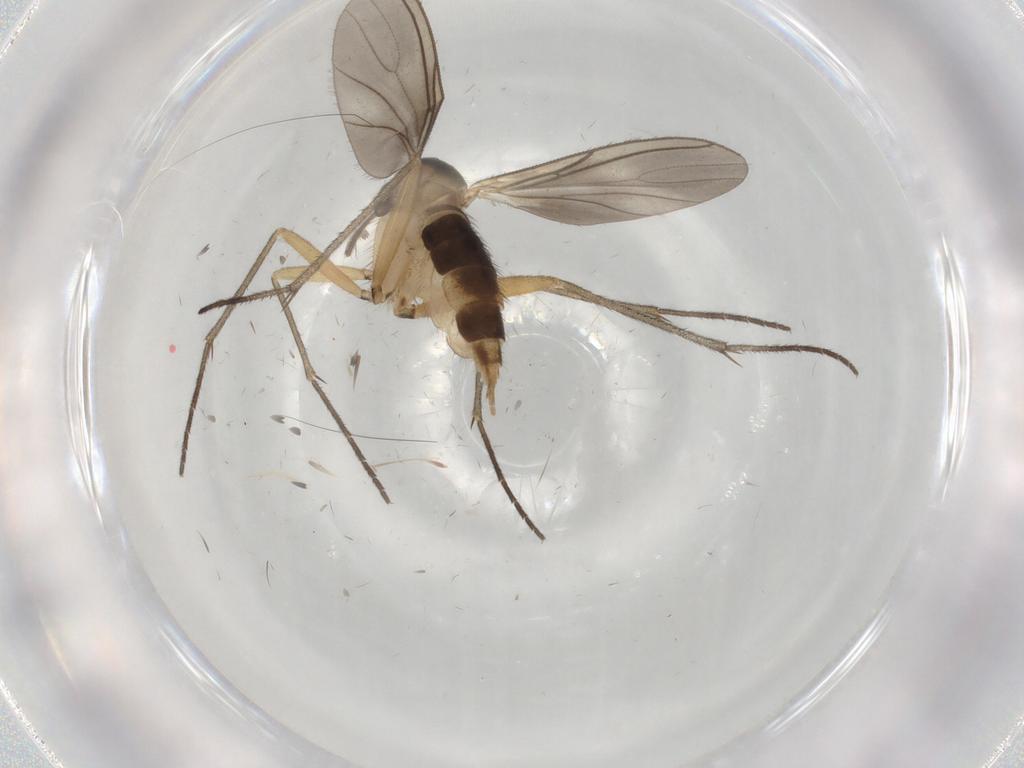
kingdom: Animalia
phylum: Arthropoda
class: Insecta
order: Diptera
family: Sciaridae
